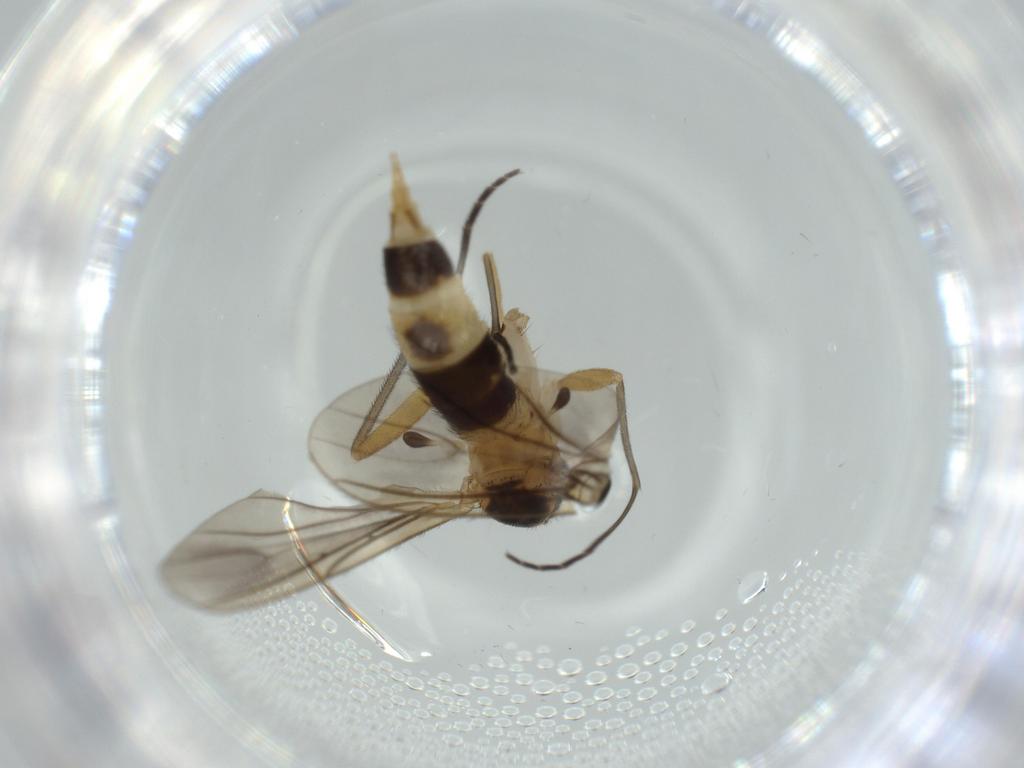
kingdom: Animalia
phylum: Arthropoda
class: Insecta
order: Diptera
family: Sciaridae
